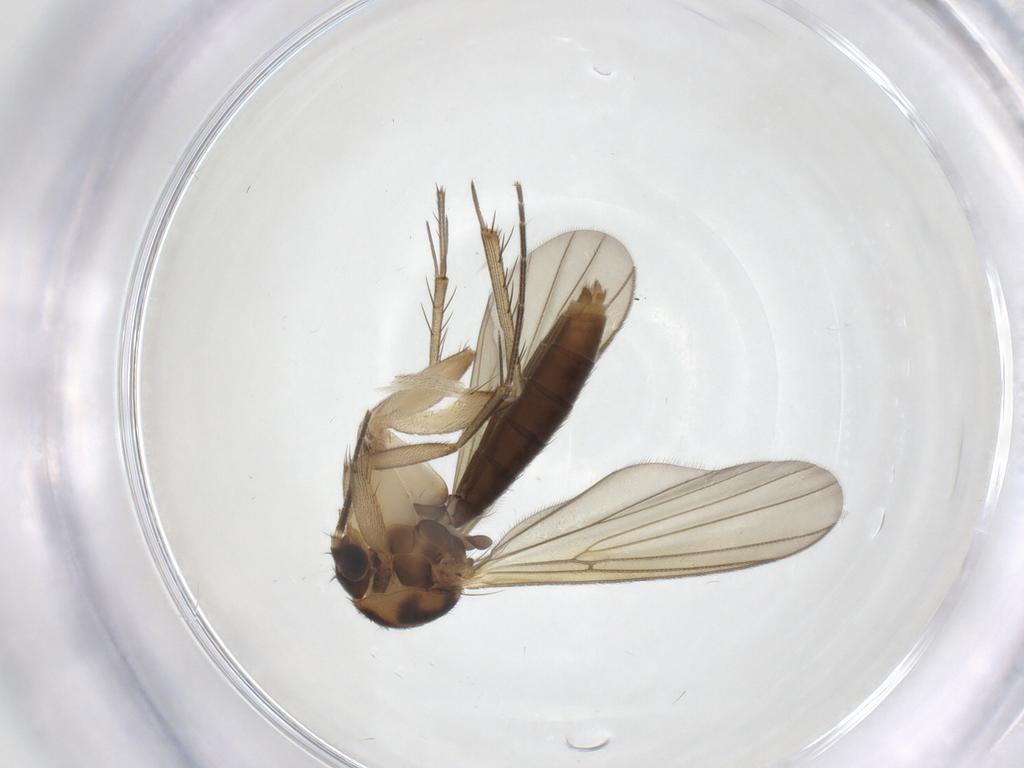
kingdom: Animalia
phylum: Arthropoda
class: Insecta
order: Diptera
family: Mycetophilidae
